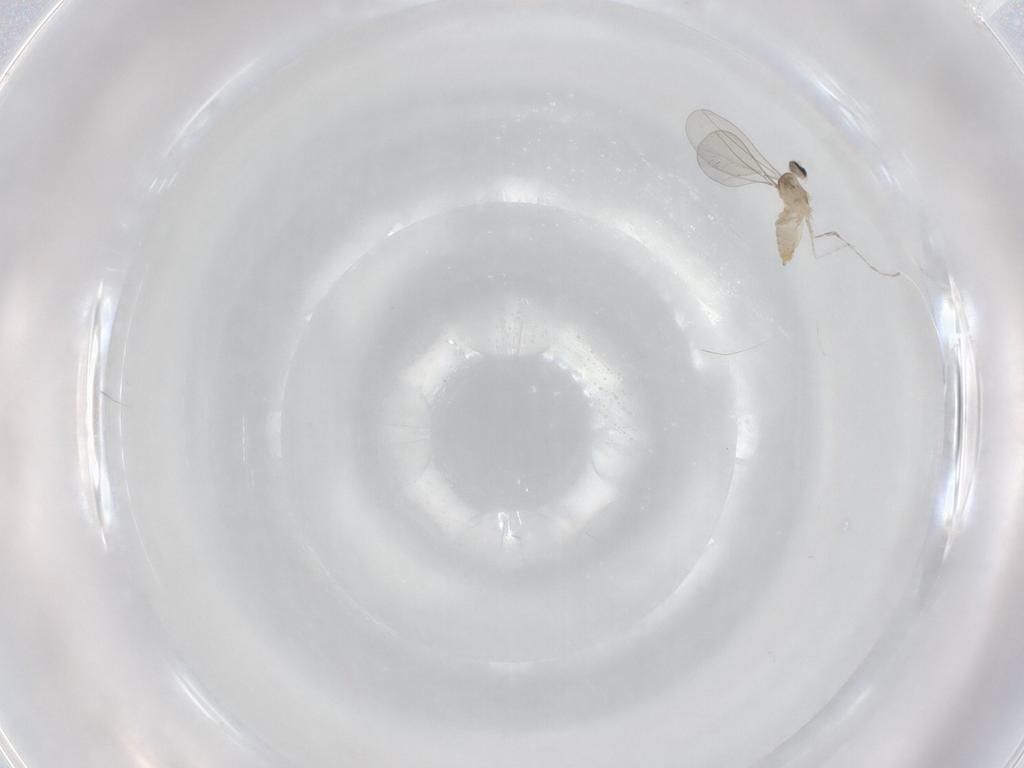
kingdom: Animalia
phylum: Arthropoda
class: Insecta
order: Diptera
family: Cecidomyiidae
